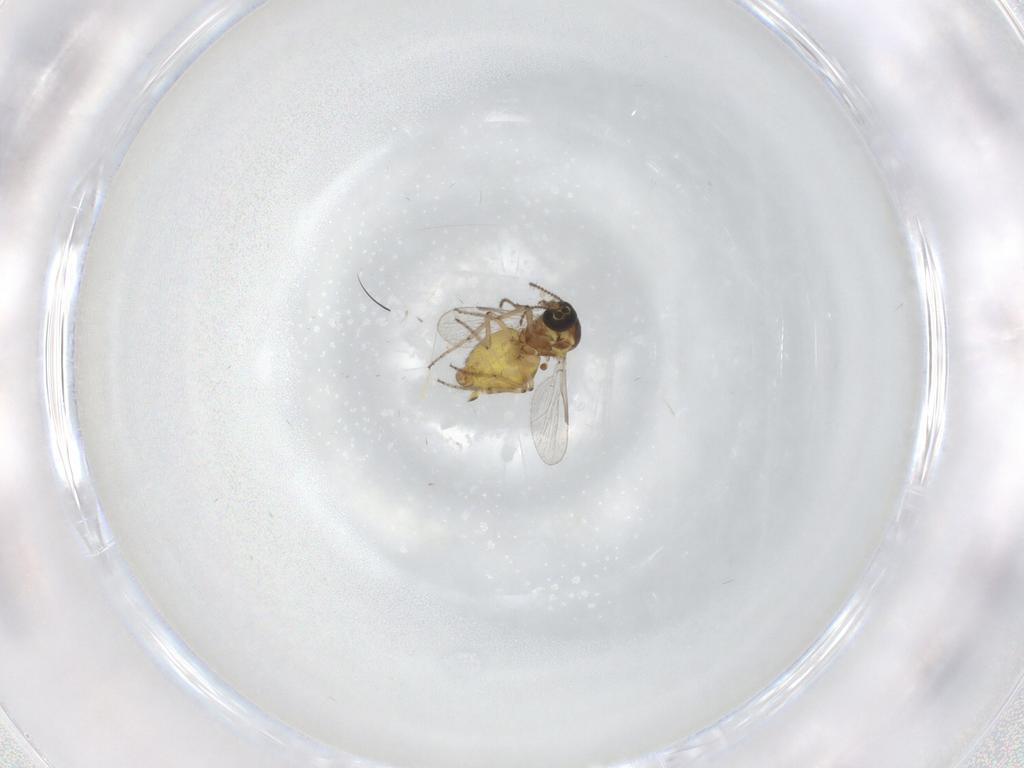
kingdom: Animalia
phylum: Arthropoda
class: Insecta
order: Diptera
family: Ceratopogonidae
